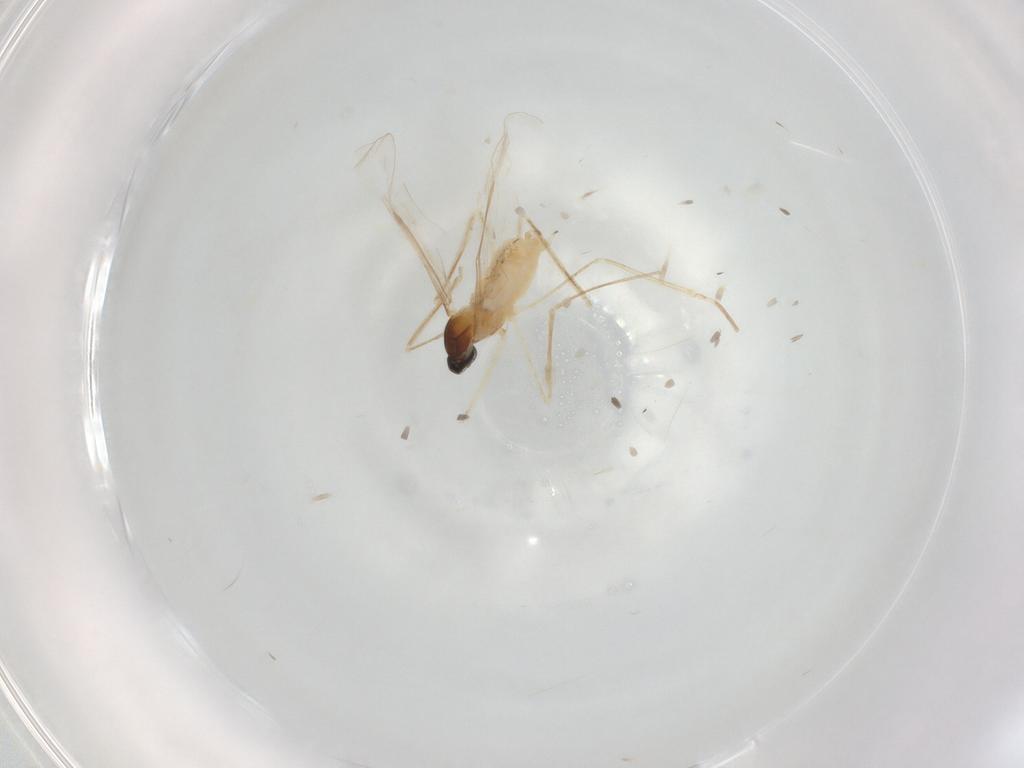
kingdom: Animalia
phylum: Arthropoda
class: Insecta
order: Diptera
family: Cecidomyiidae
